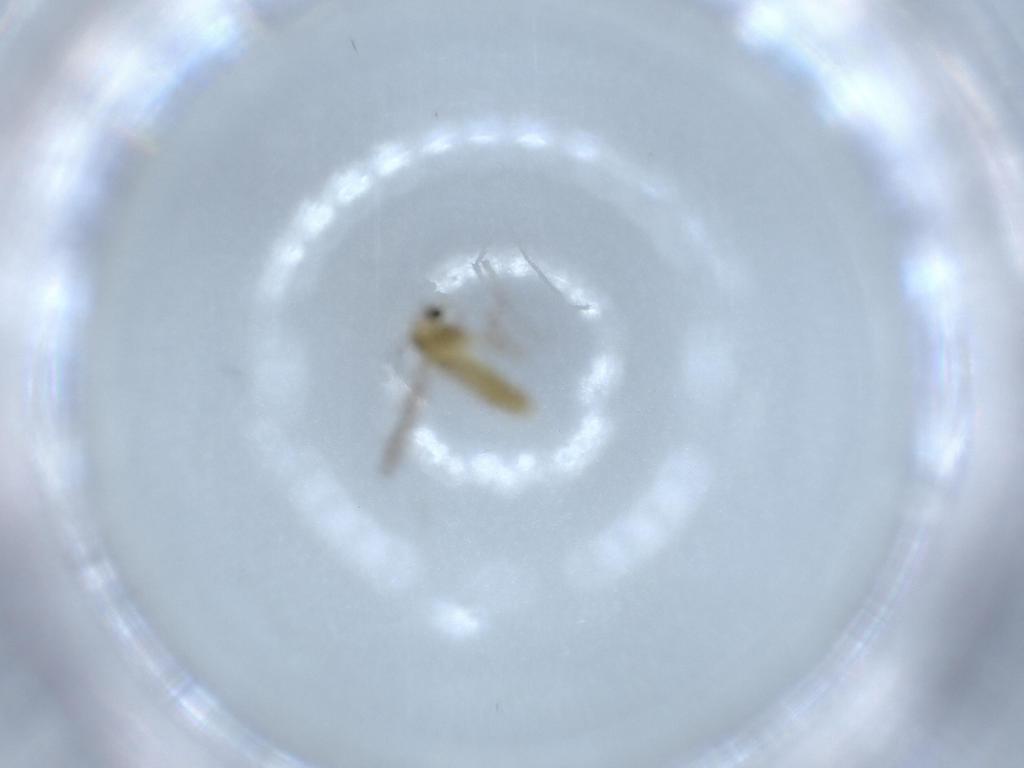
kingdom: Animalia
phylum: Arthropoda
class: Insecta
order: Diptera
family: Chironomidae
